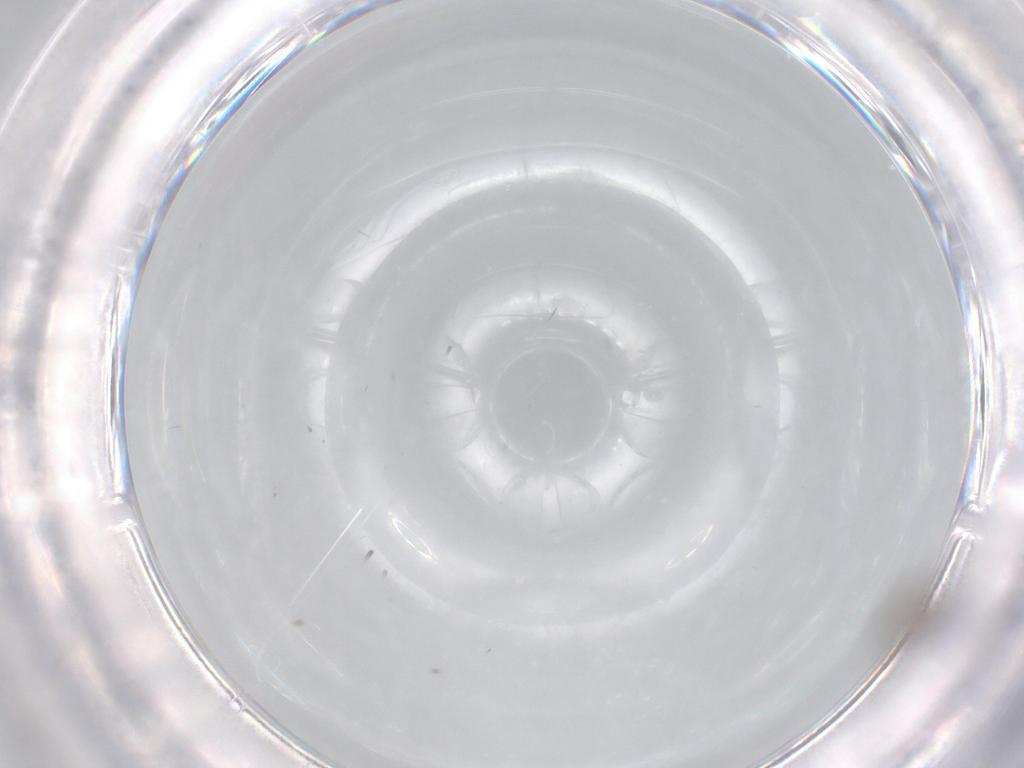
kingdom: Animalia
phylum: Arthropoda
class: Insecta
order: Diptera
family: Cecidomyiidae
